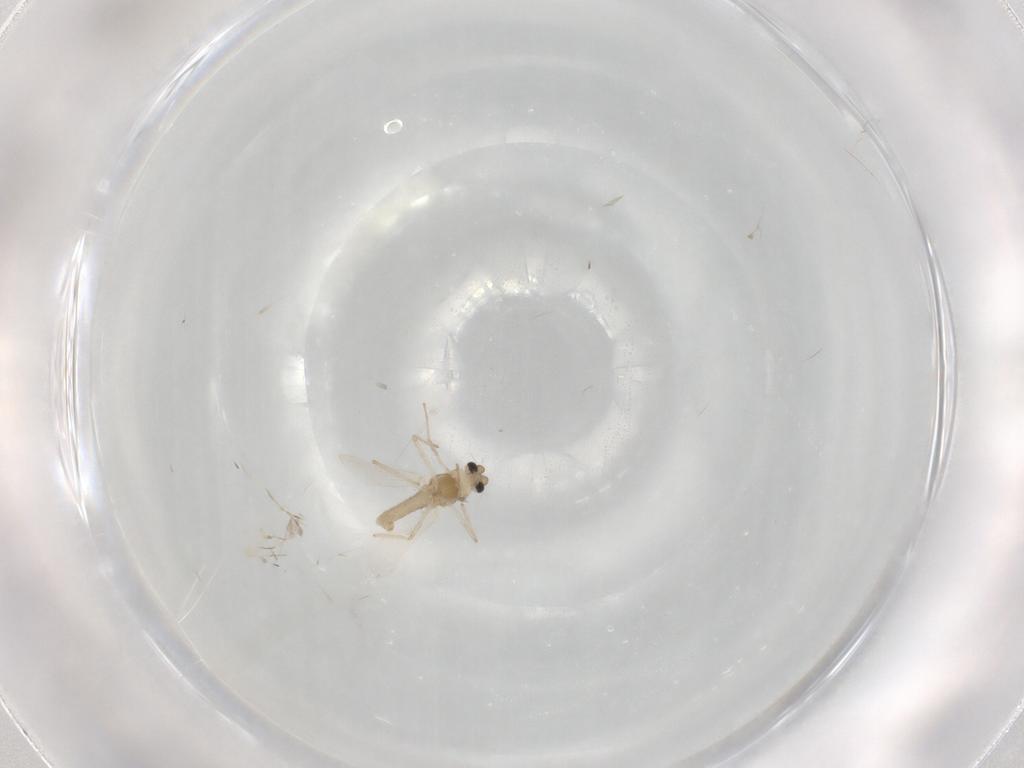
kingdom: Animalia
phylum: Arthropoda
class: Insecta
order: Diptera
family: Chironomidae
